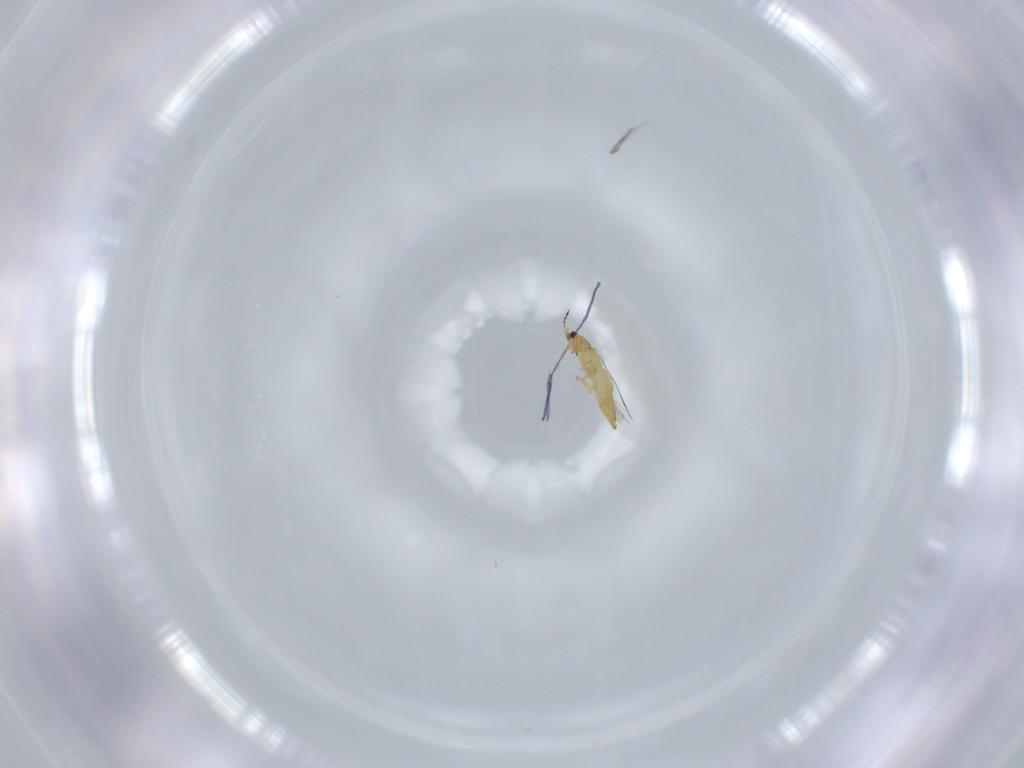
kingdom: Animalia
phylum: Arthropoda
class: Insecta
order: Thysanoptera
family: Thripidae
